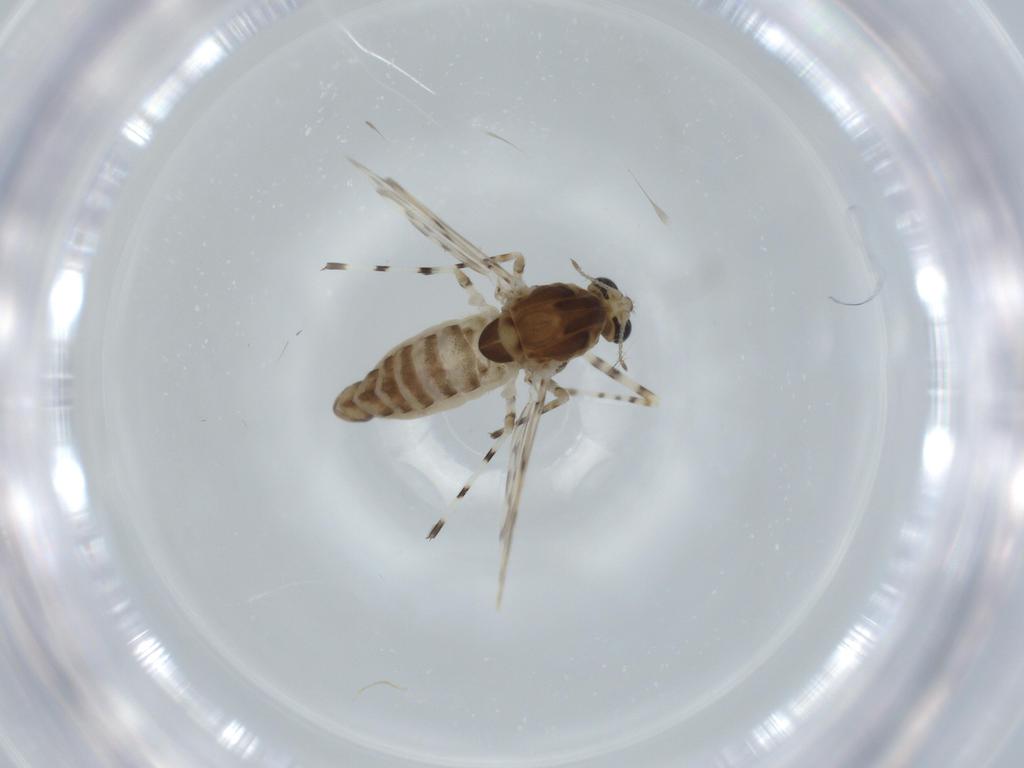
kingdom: Animalia
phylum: Arthropoda
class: Insecta
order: Diptera
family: Chironomidae
